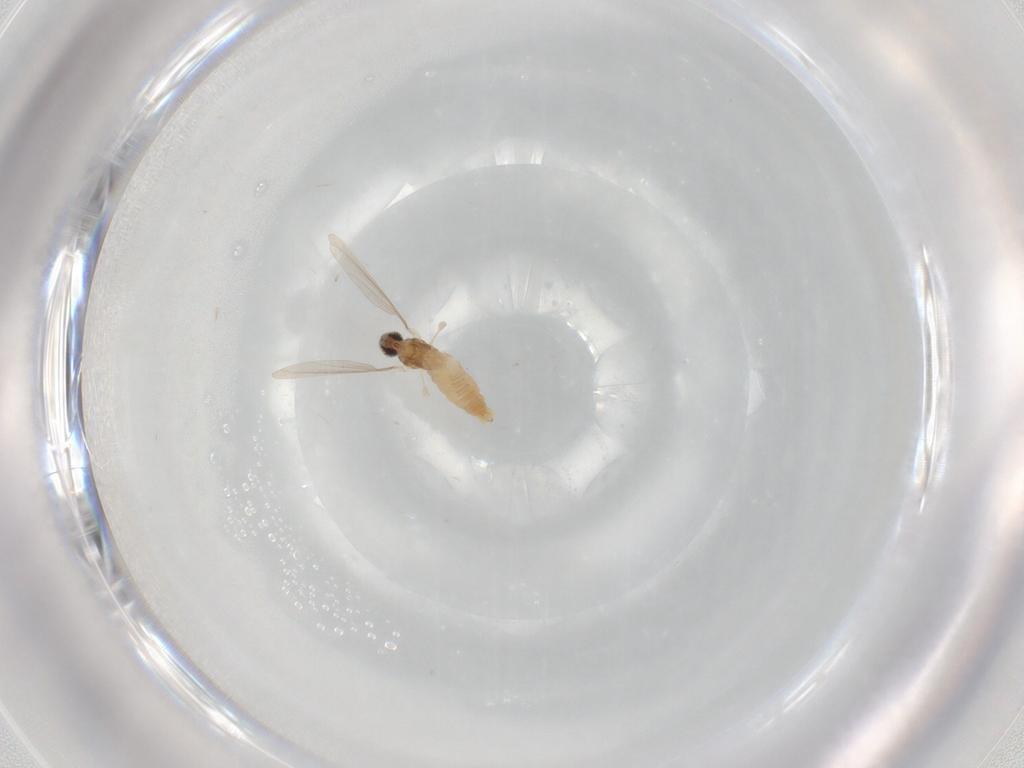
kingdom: Animalia
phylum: Arthropoda
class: Insecta
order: Diptera
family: Cecidomyiidae
